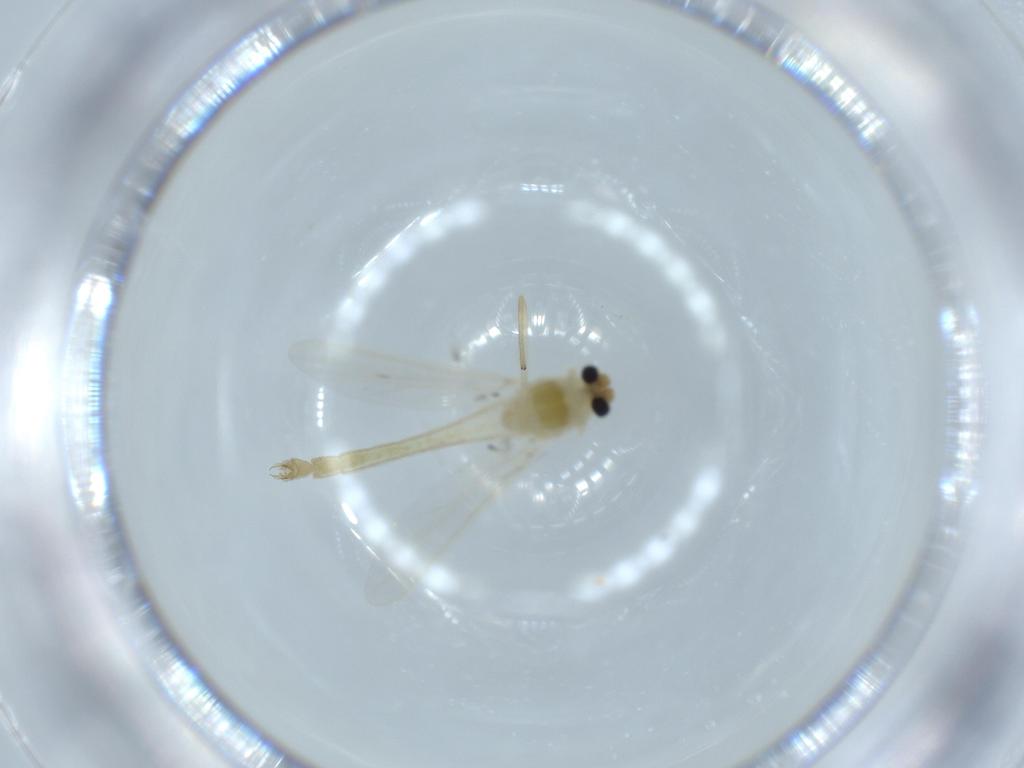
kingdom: Animalia
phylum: Arthropoda
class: Insecta
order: Diptera
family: Chironomidae
